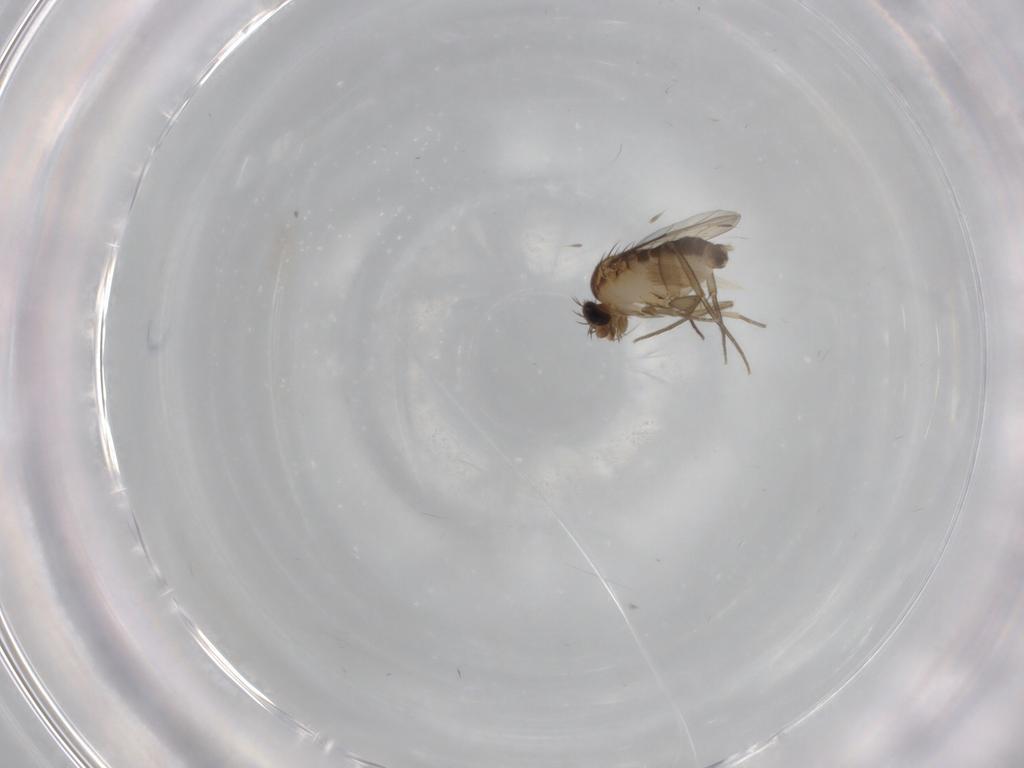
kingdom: Animalia
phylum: Arthropoda
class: Insecta
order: Diptera
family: Phoridae
